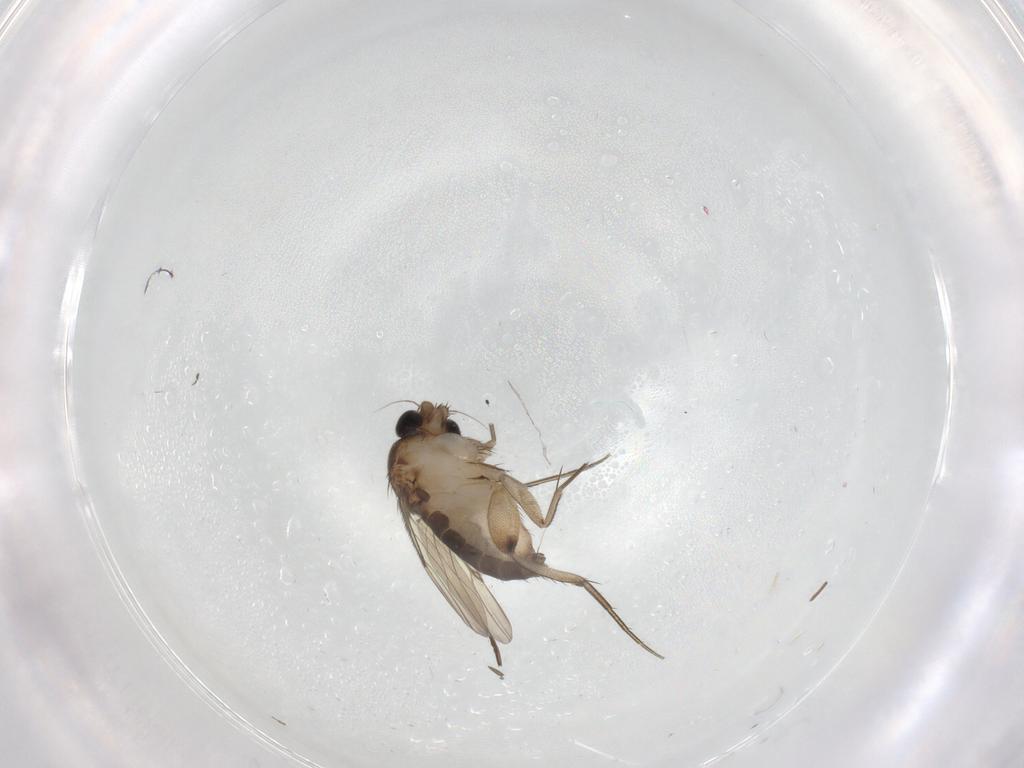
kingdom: Animalia
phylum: Arthropoda
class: Insecta
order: Diptera
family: Phoridae
